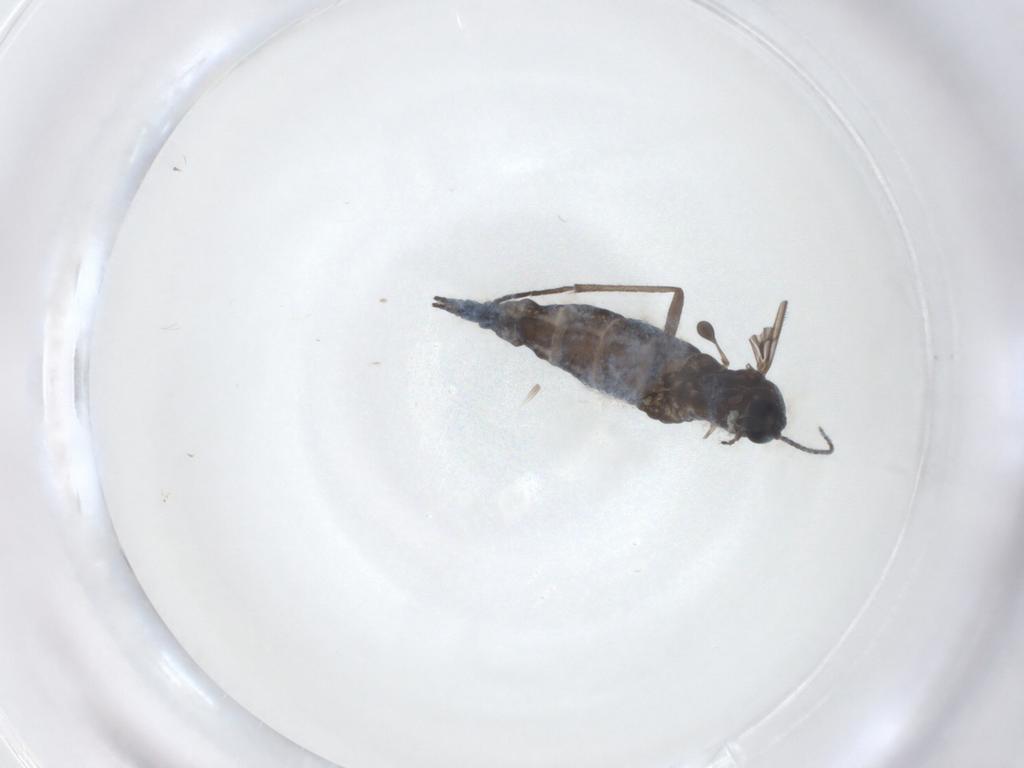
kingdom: Animalia
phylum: Arthropoda
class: Insecta
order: Diptera
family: Sciaridae
